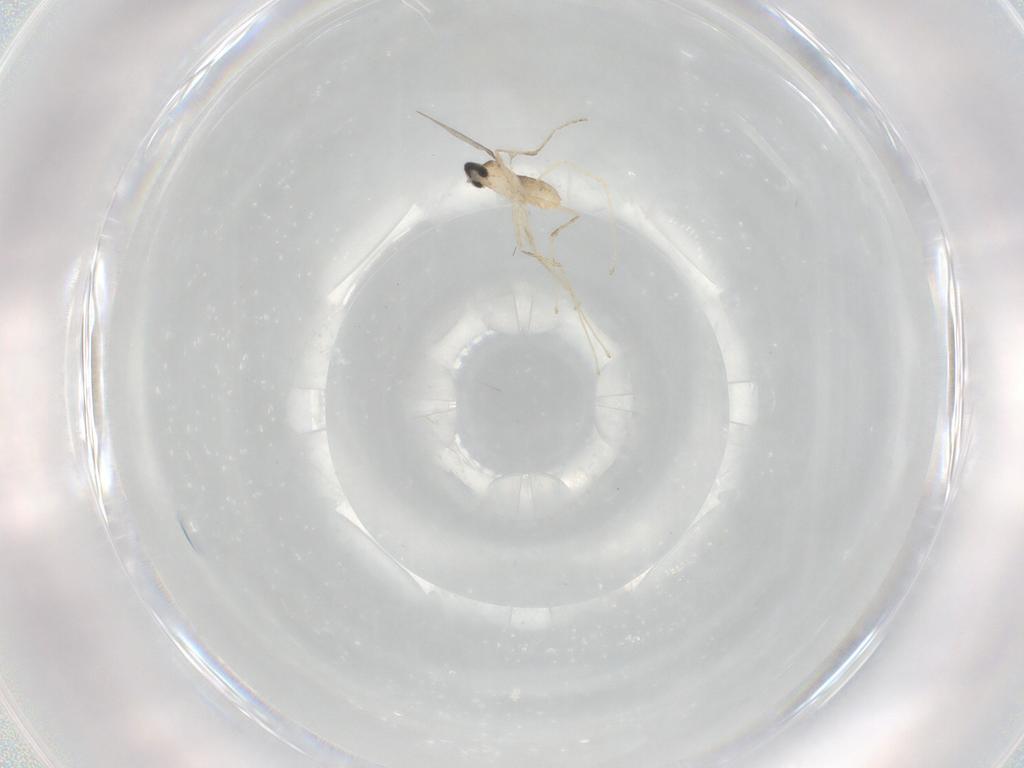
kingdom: Animalia
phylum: Arthropoda
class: Insecta
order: Diptera
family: Cecidomyiidae
